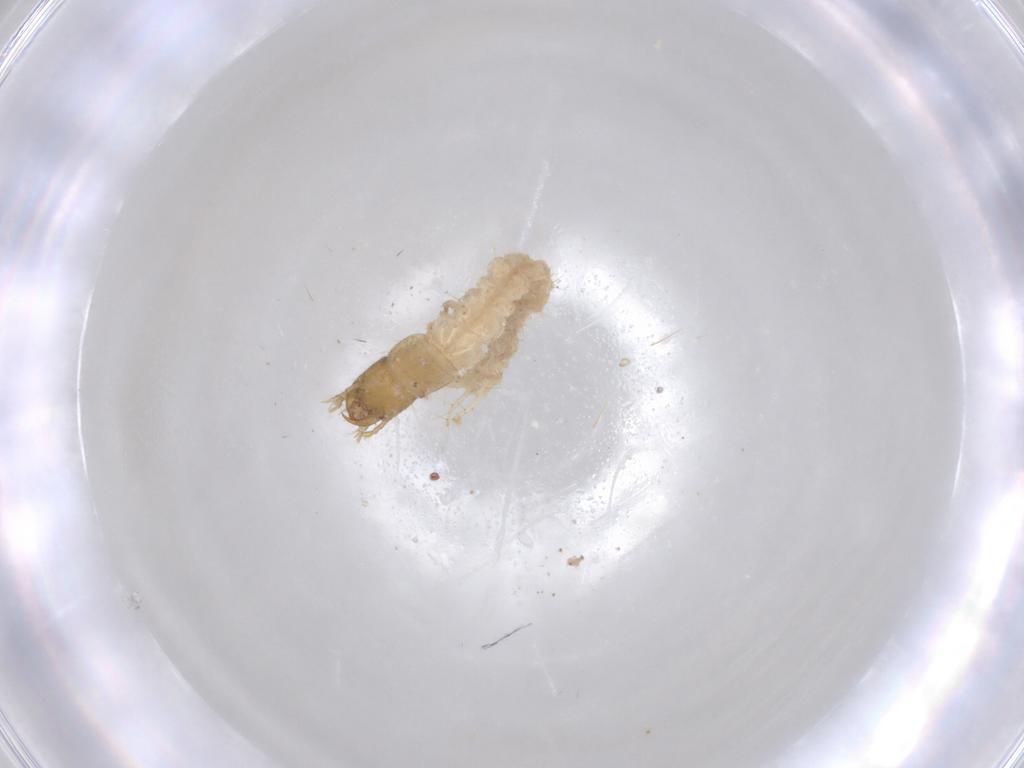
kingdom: Animalia
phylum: Arthropoda
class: Insecta
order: Coleoptera
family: Carabidae
